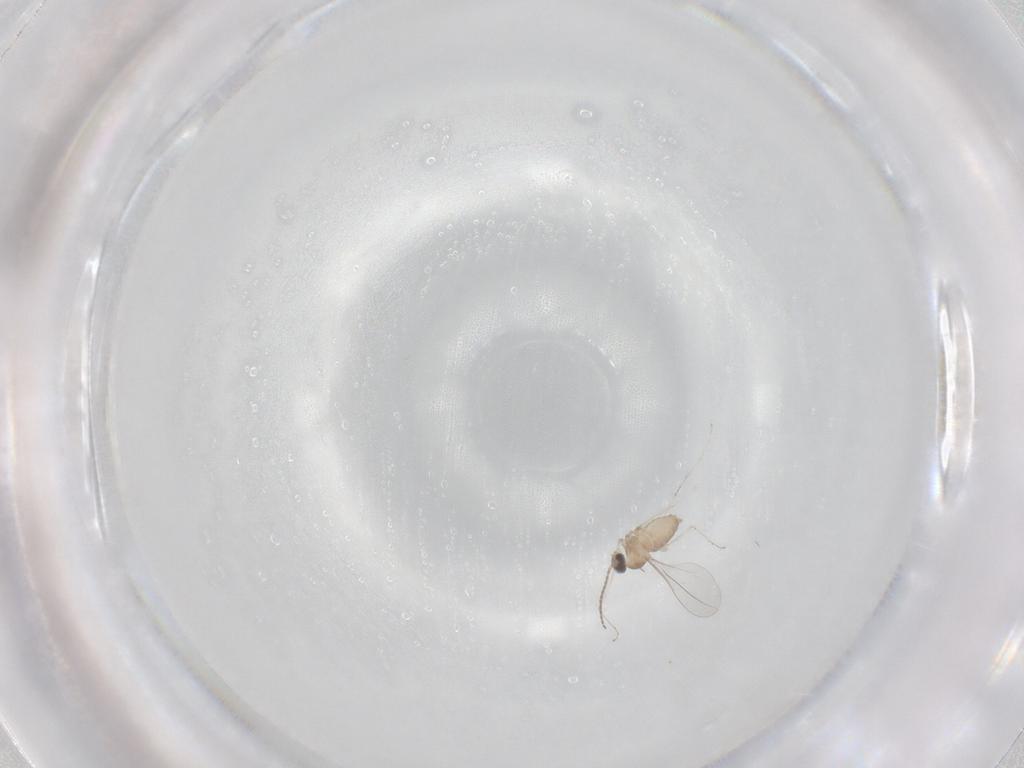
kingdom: Animalia
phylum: Arthropoda
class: Insecta
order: Diptera
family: Cecidomyiidae
